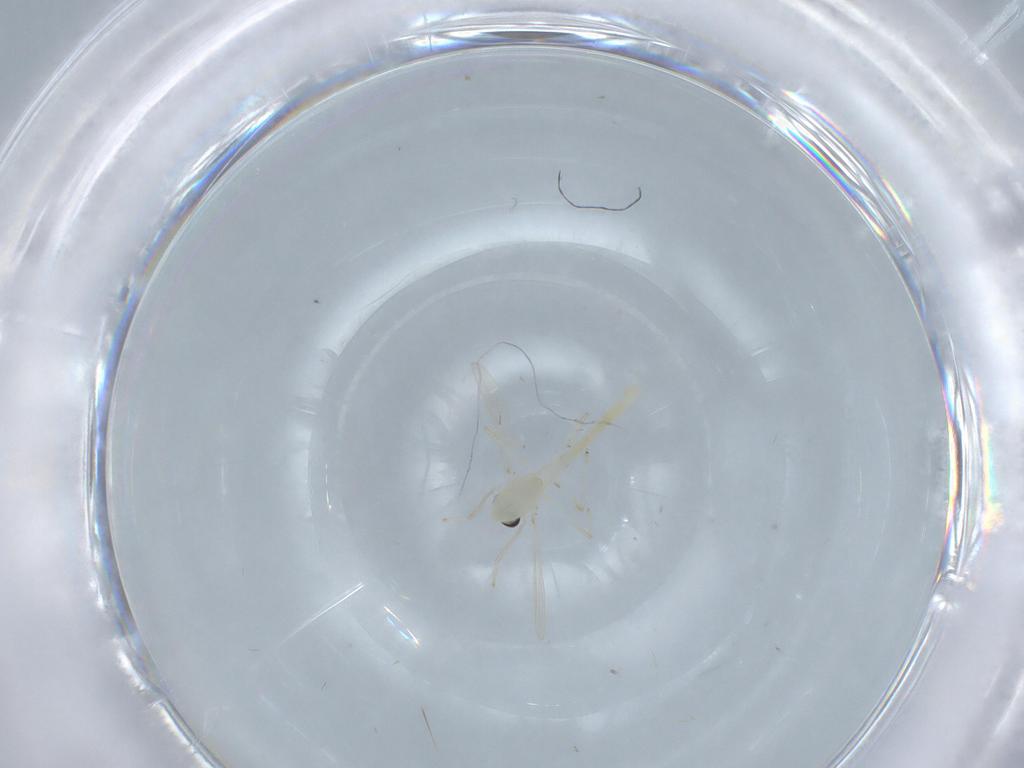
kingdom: Animalia
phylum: Arthropoda
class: Insecta
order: Diptera
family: Cecidomyiidae
